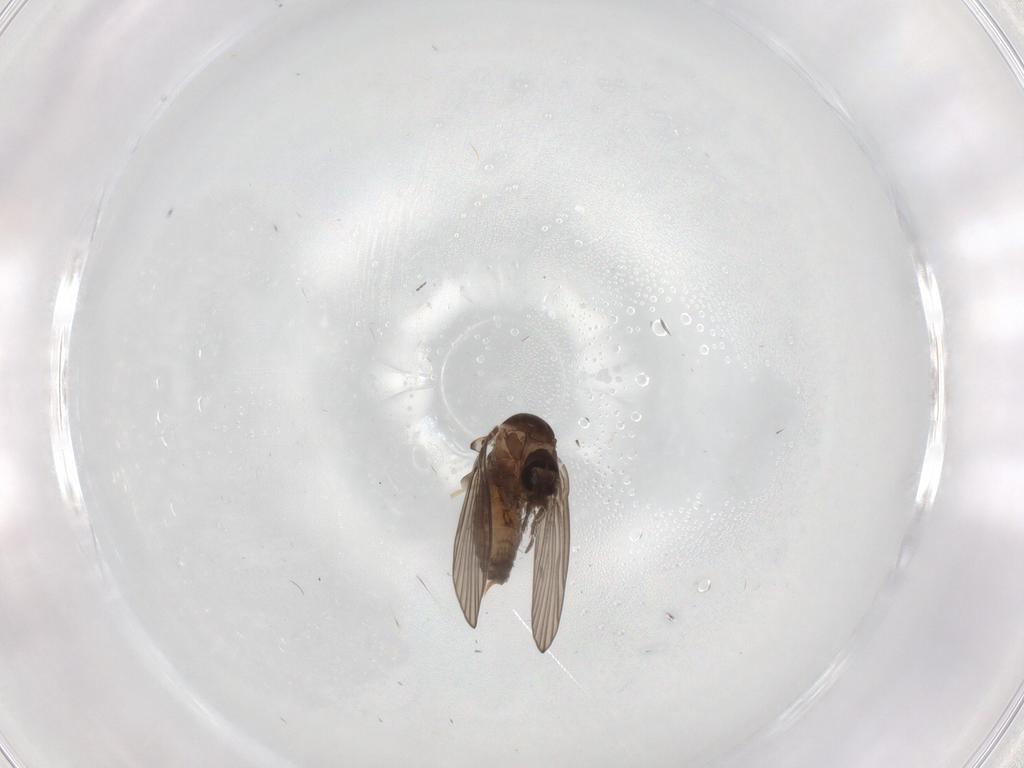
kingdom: Animalia
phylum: Arthropoda
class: Insecta
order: Diptera
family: Psychodidae
